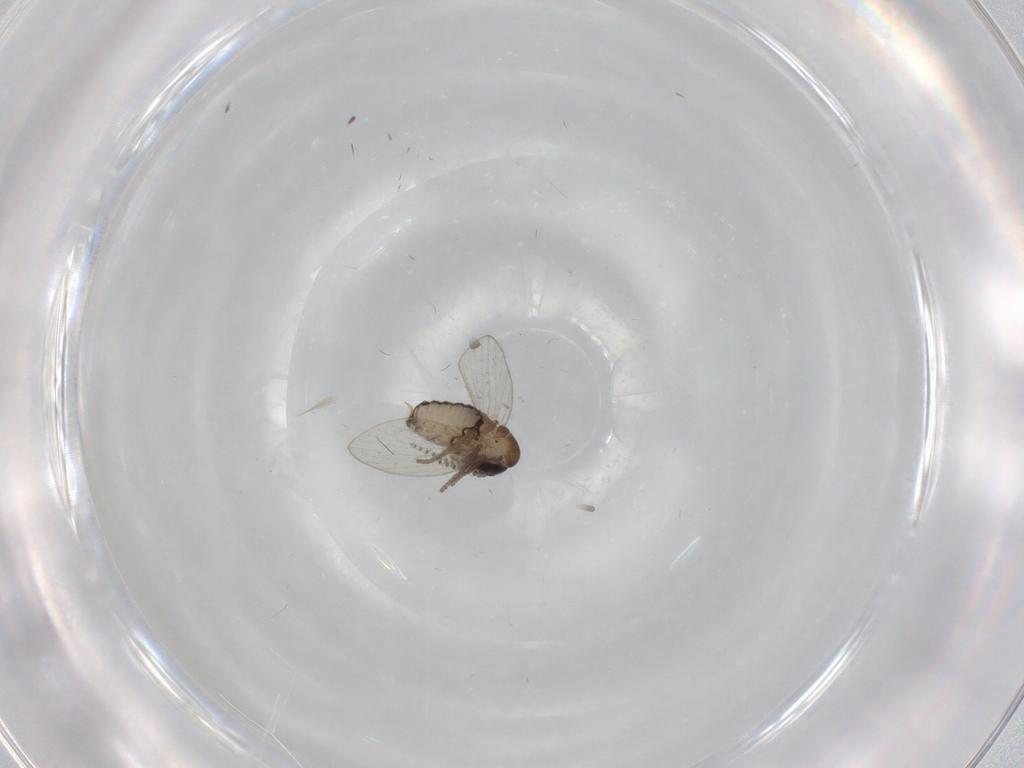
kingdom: Animalia
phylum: Arthropoda
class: Insecta
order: Diptera
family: Psychodidae
